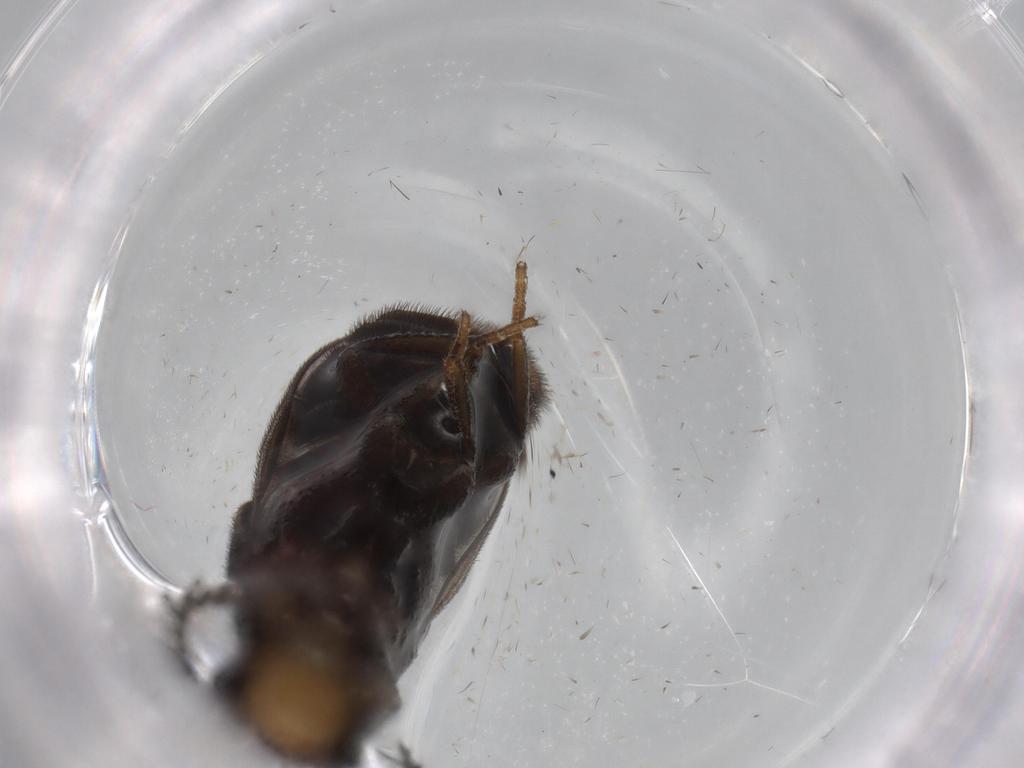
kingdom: Animalia
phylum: Arthropoda
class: Insecta
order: Coleoptera
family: Phengodidae
